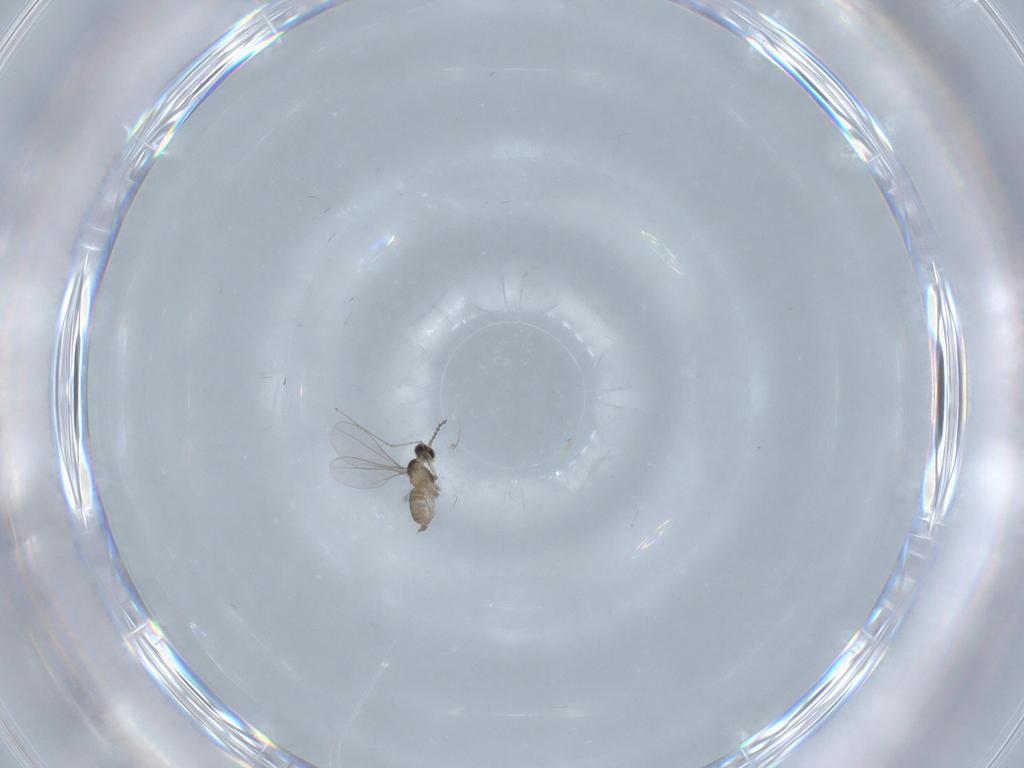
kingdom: Animalia
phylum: Arthropoda
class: Insecta
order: Diptera
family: Cecidomyiidae
